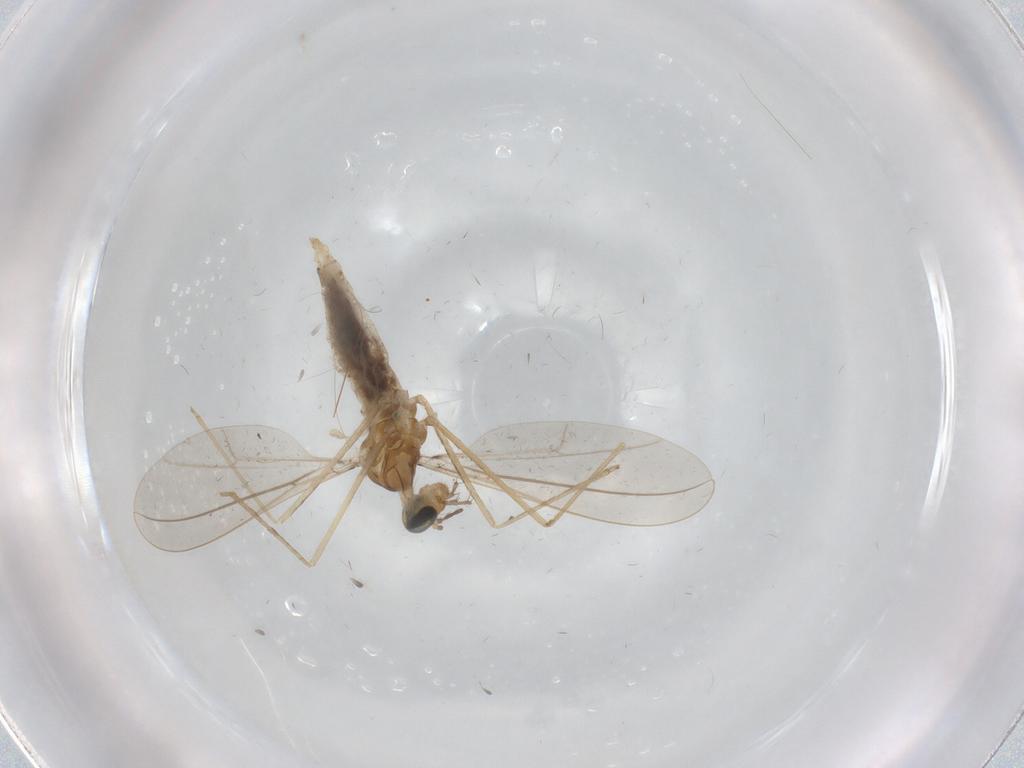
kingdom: Animalia
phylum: Arthropoda
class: Insecta
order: Diptera
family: Cecidomyiidae
